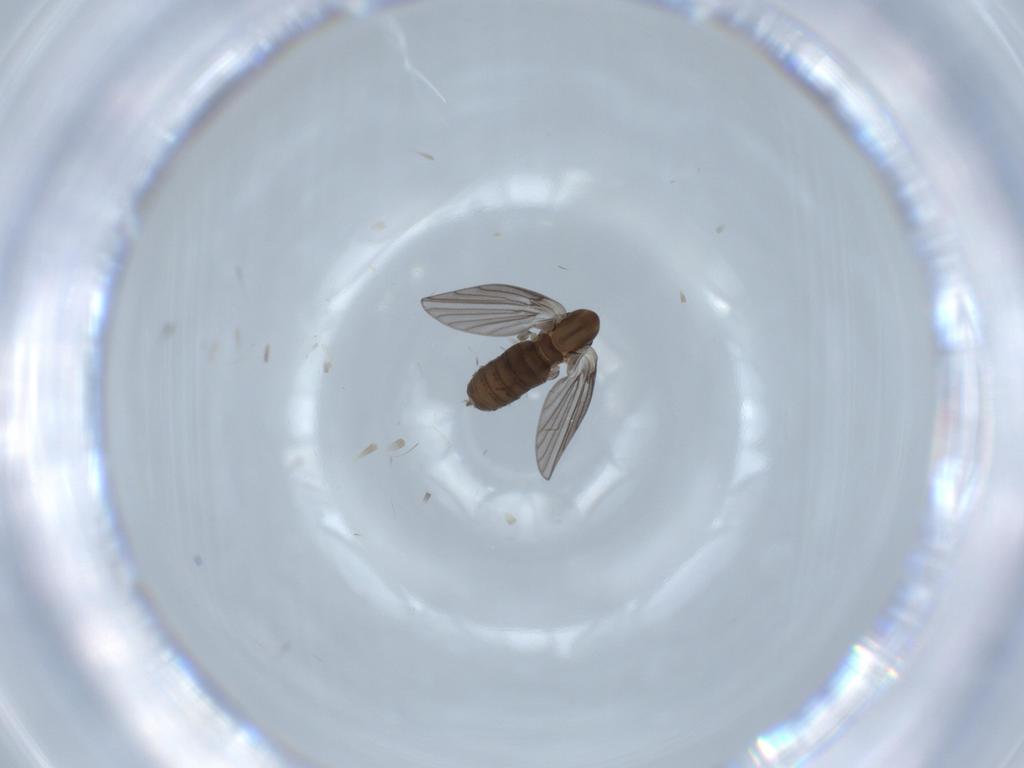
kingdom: Animalia
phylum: Arthropoda
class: Insecta
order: Diptera
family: Psychodidae
